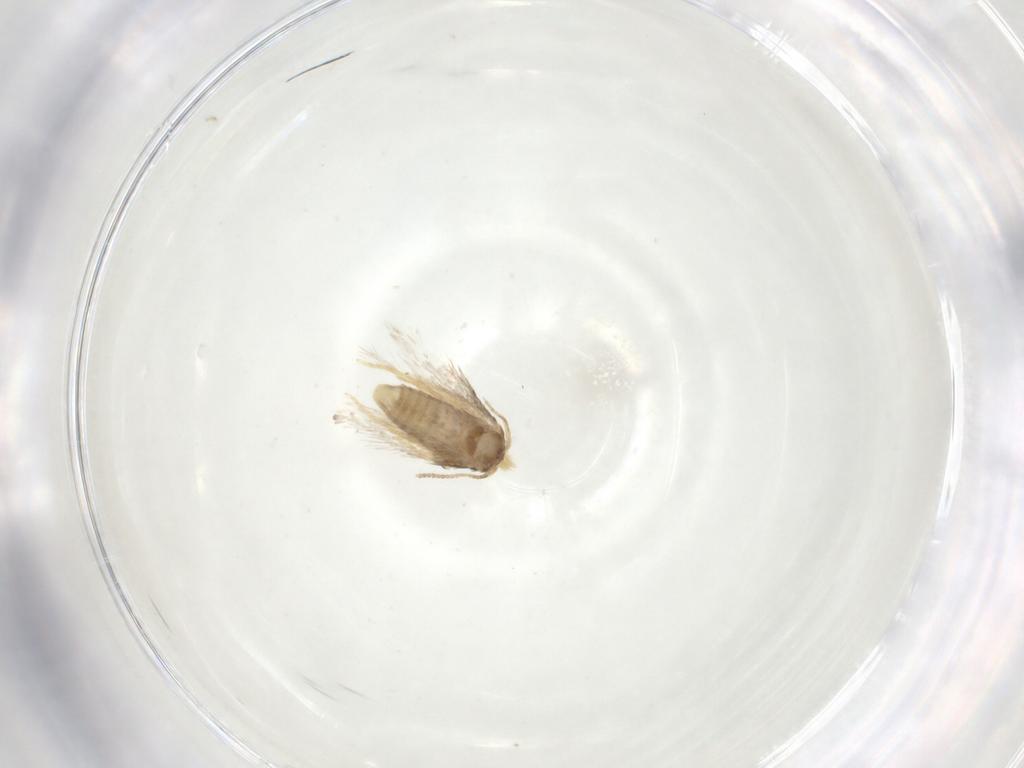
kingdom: Animalia
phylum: Arthropoda
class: Insecta
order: Lepidoptera
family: Nepticulidae
